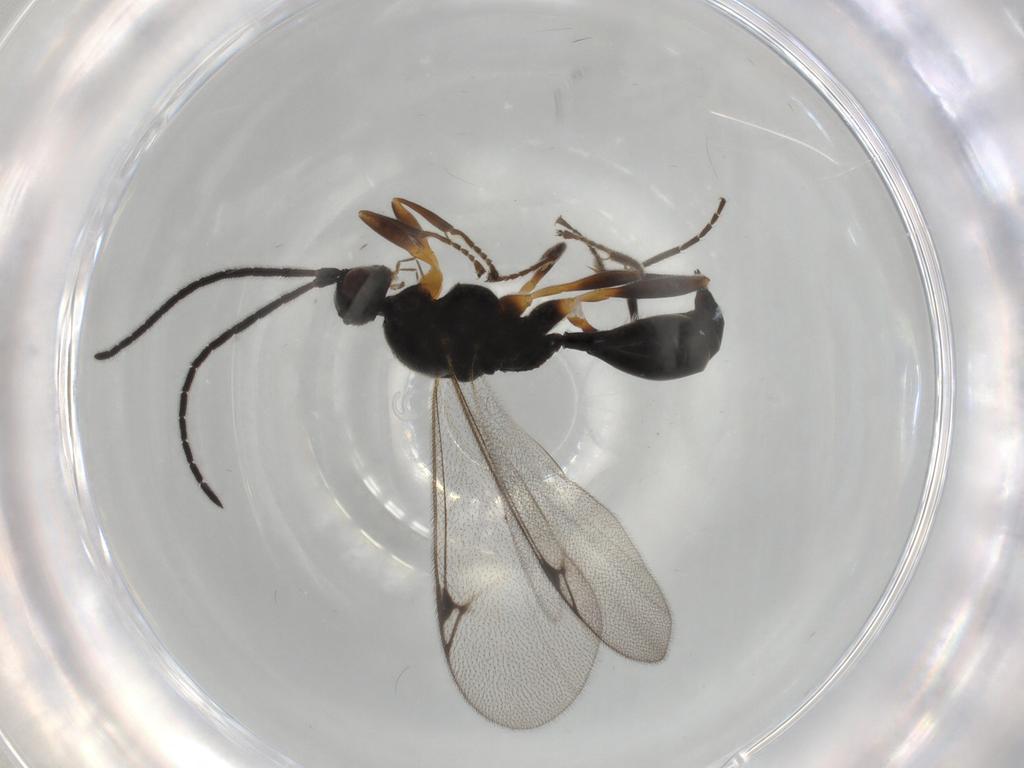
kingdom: Animalia
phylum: Arthropoda
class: Insecta
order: Hymenoptera
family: Proctotrupidae
